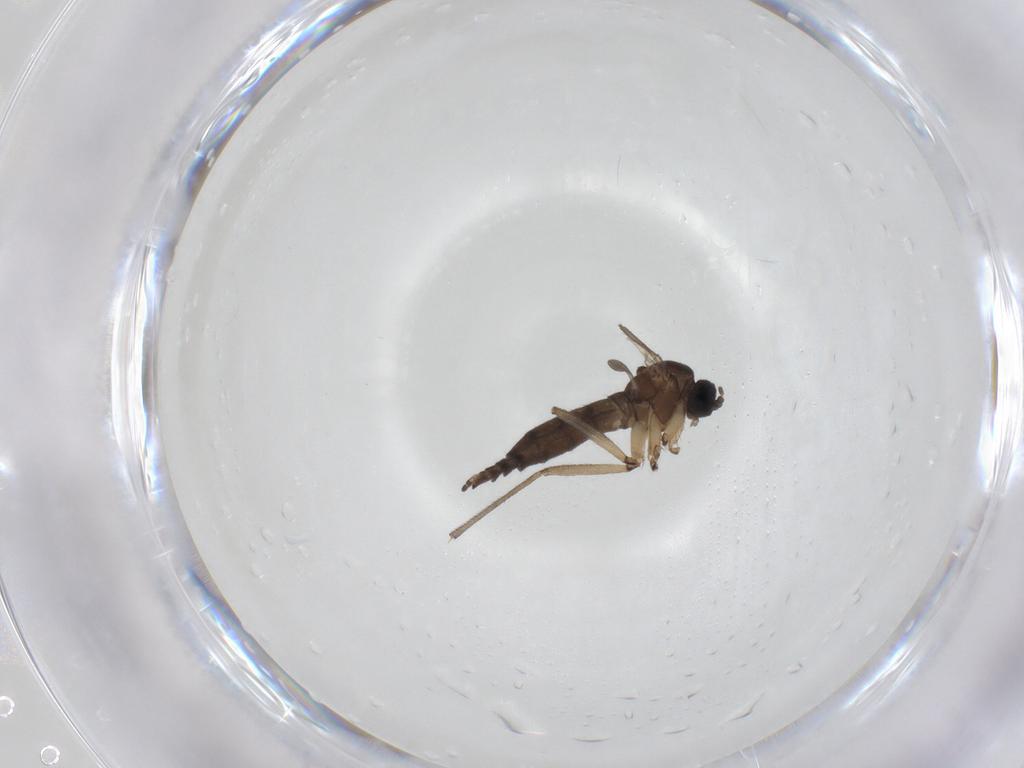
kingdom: Animalia
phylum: Arthropoda
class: Insecta
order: Diptera
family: Sciaridae
